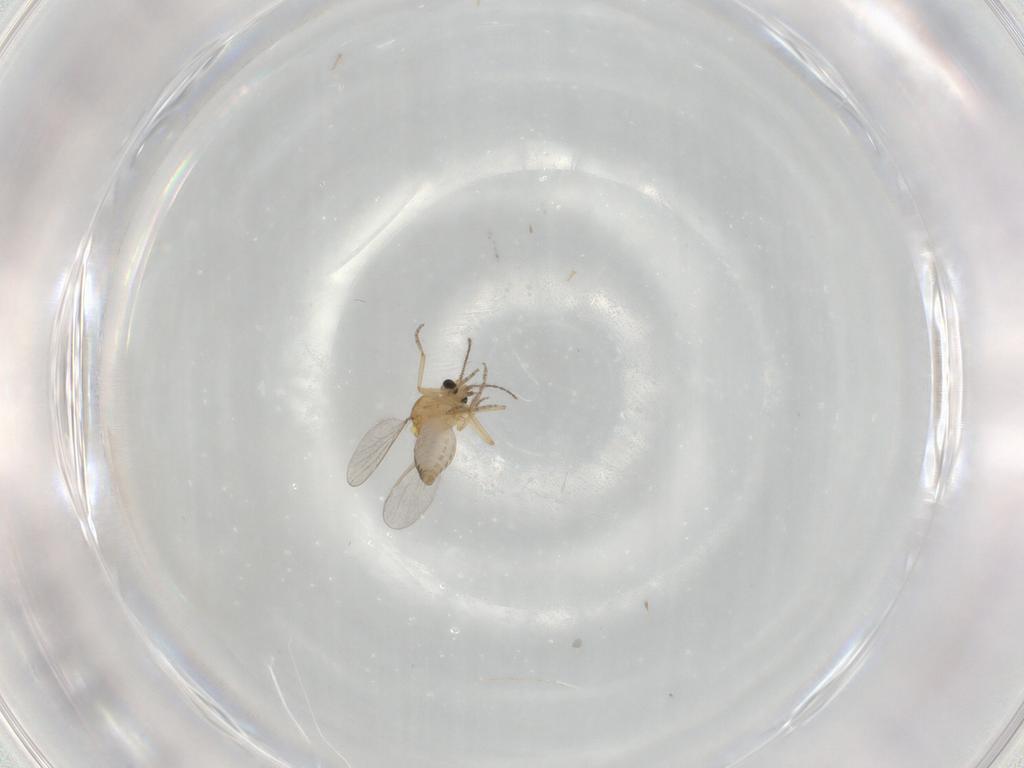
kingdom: Animalia
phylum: Arthropoda
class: Insecta
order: Diptera
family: Ceratopogonidae
